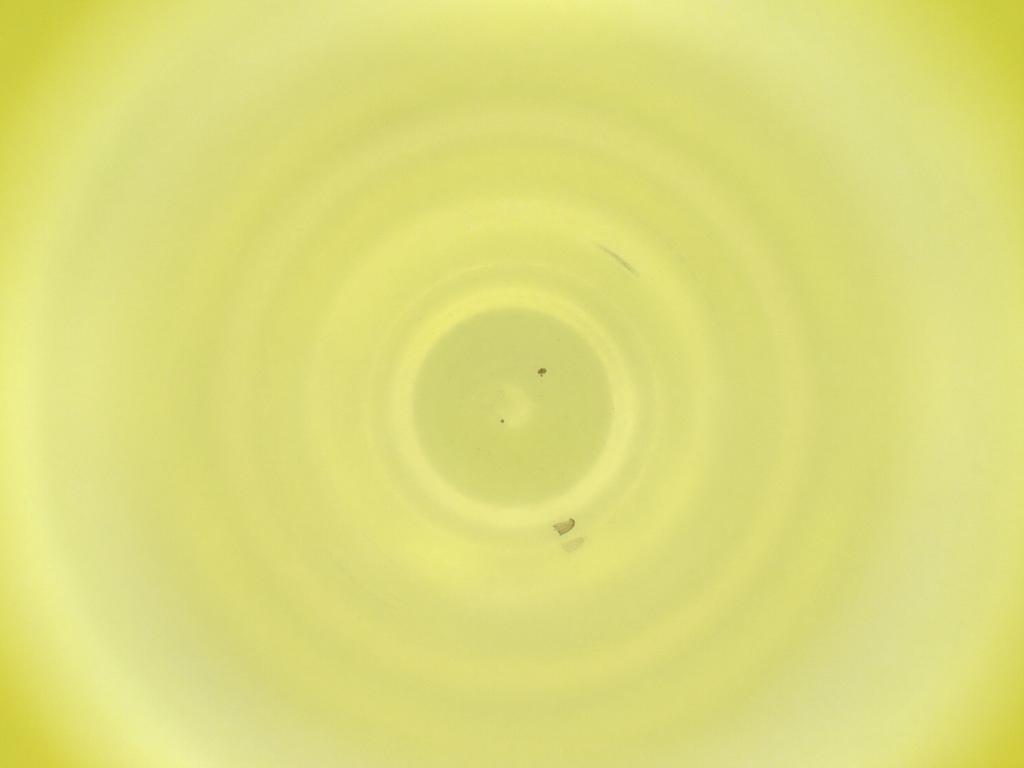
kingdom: Animalia
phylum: Arthropoda
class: Insecta
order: Diptera
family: Cecidomyiidae
